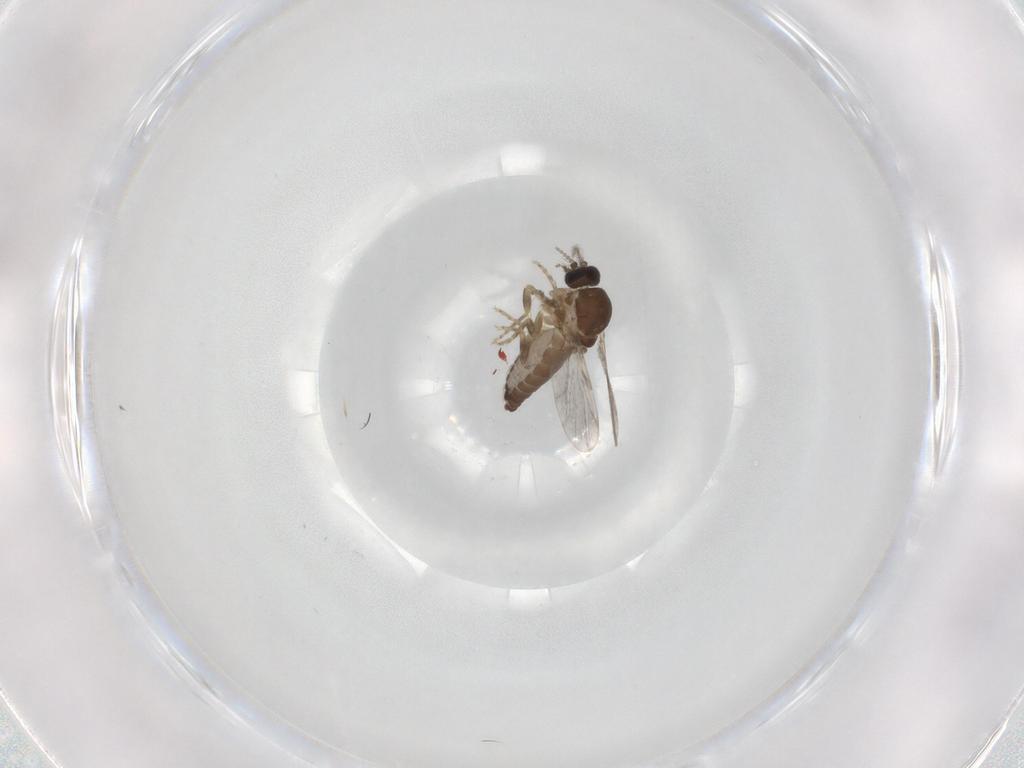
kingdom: Animalia
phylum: Arthropoda
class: Insecta
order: Diptera
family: Ceratopogonidae
